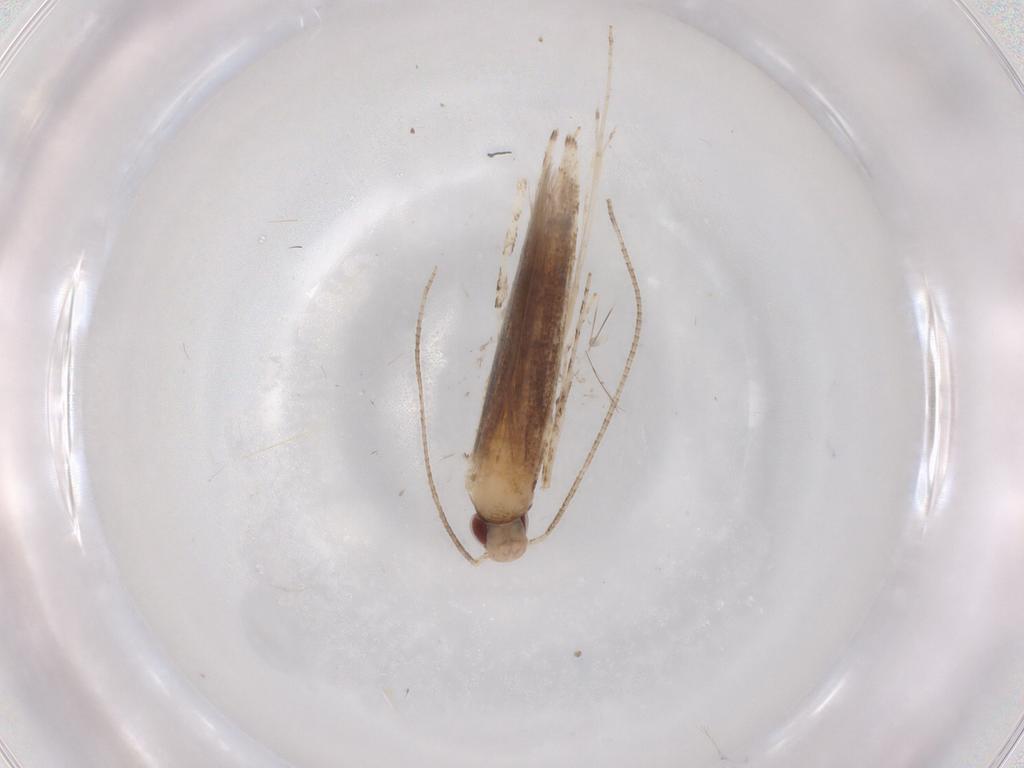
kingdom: Animalia
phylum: Arthropoda
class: Insecta
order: Lepidoptera
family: Gracillariidae
